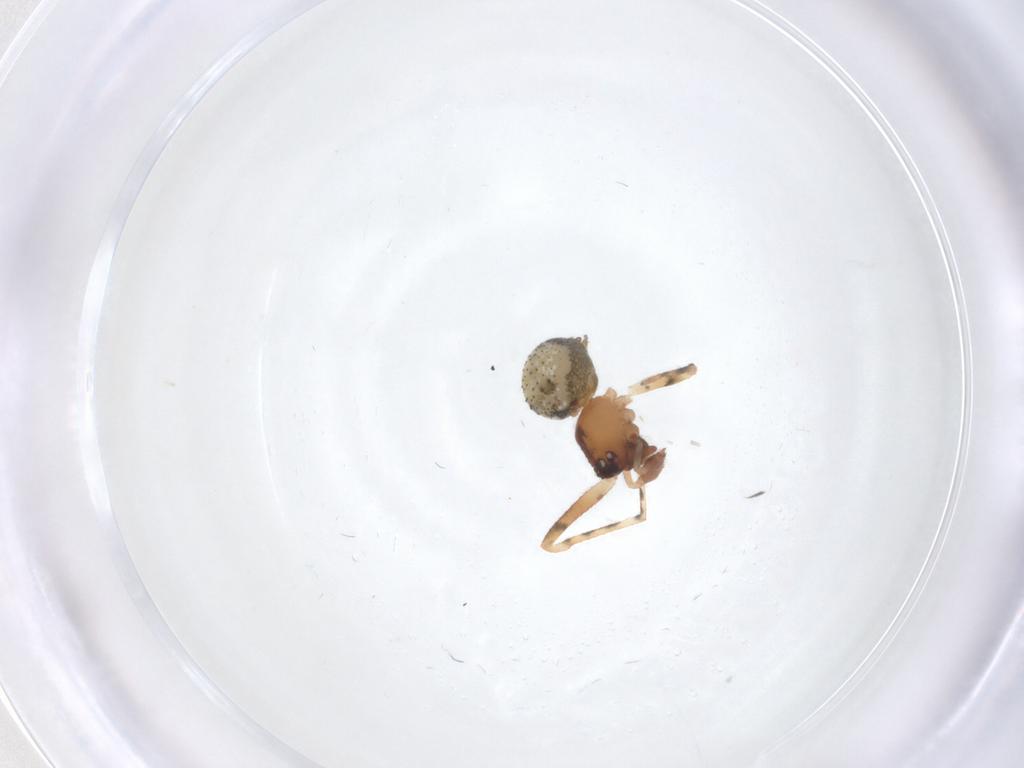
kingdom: Animalia
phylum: Arthropoda
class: Arachnida
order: Araneae
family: Theridiidae
